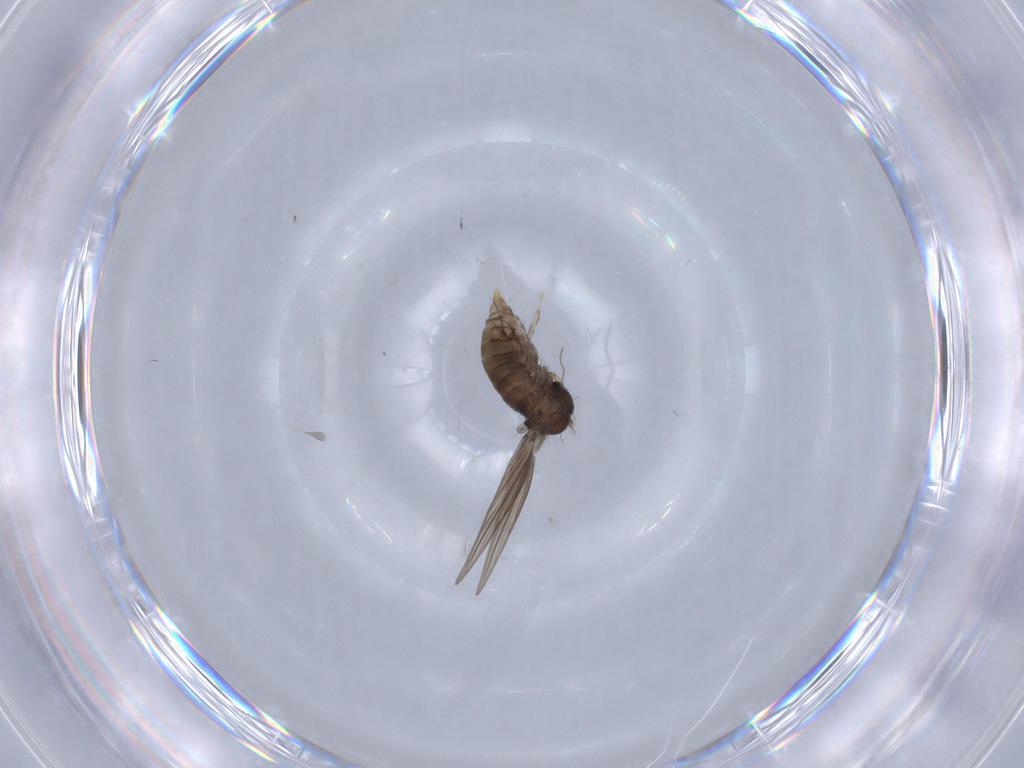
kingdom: Animalia
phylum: Arthropoda
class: Insecta
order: Diptera
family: Psychodidae
